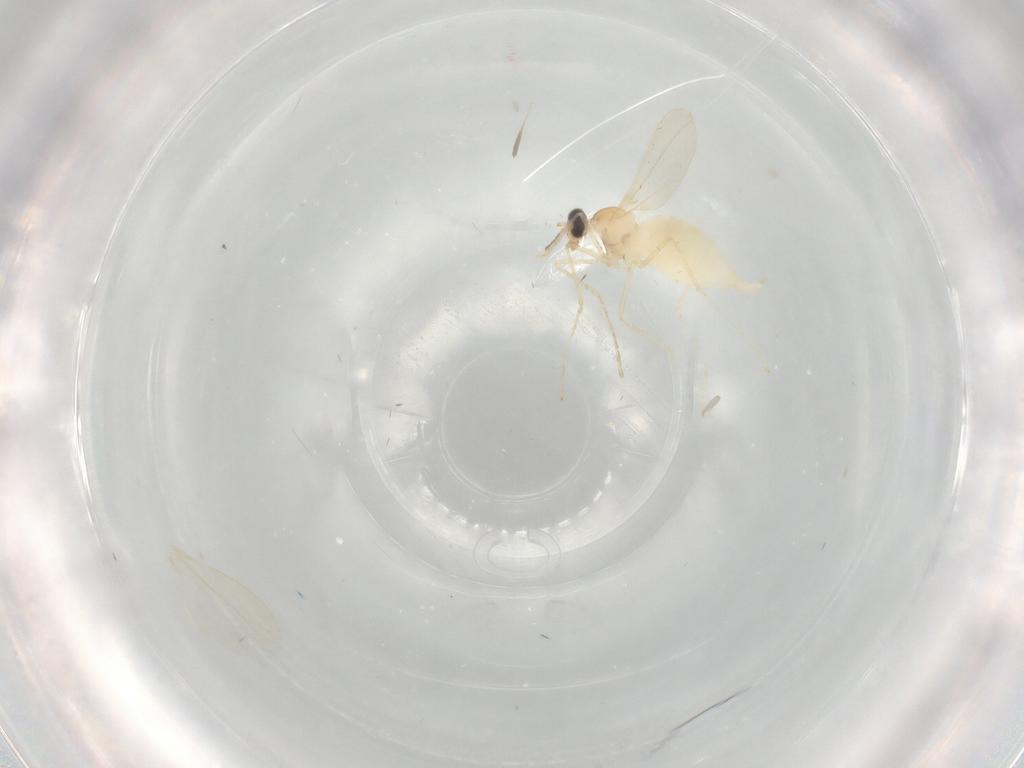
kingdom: Animalia
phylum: Arthropoda
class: Insecta
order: Diptera
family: Cecidomyiidae
